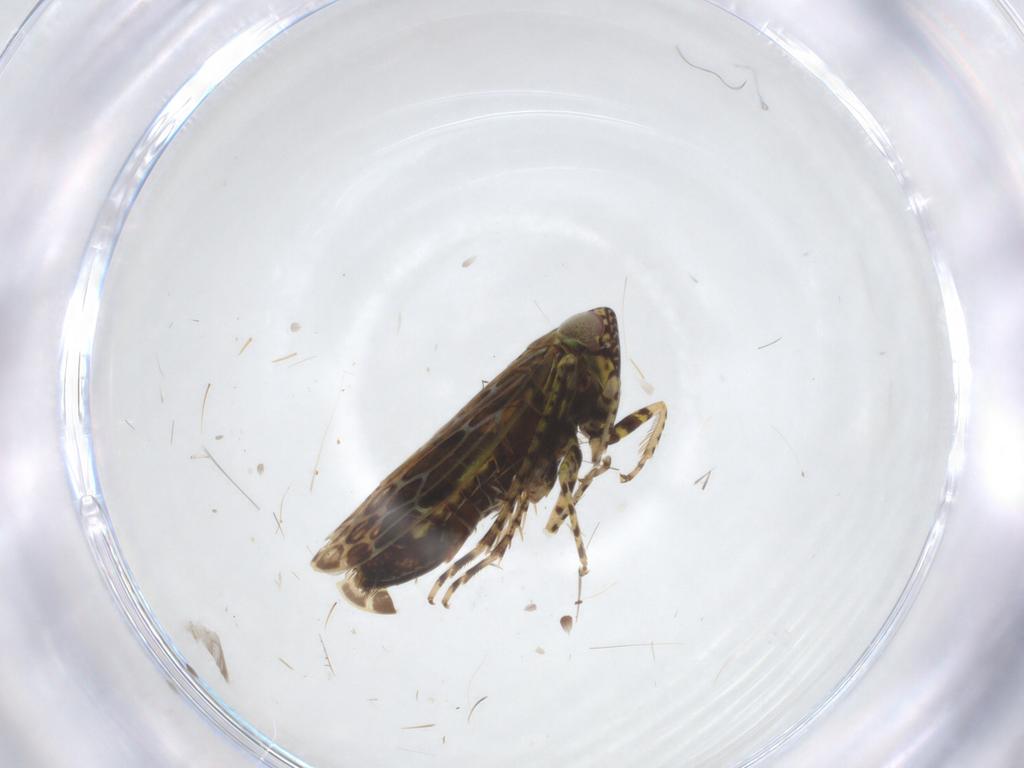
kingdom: Animalia
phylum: Arthropoda
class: Insecta
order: Hemiptera
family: Cicadellidae
